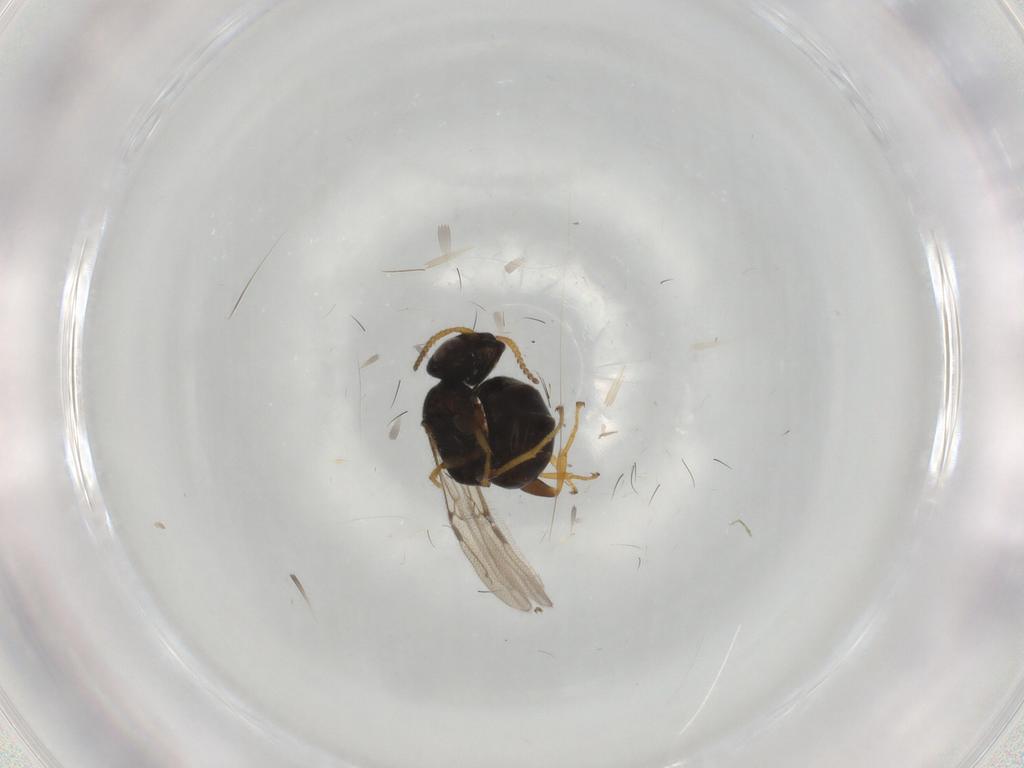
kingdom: Animalia
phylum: Arthropoda
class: Insecta
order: Hymenoptera
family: Bethylidae
